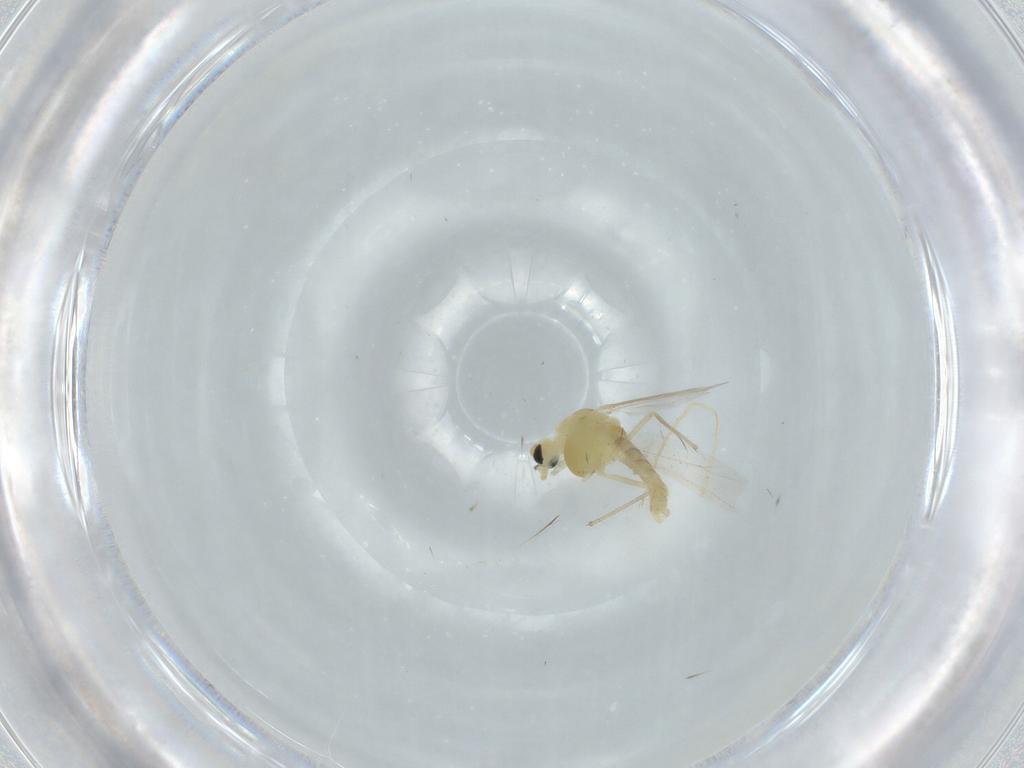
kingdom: Animalia
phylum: Arthropoda
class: Insecta
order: Diptera
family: Chironomidae
